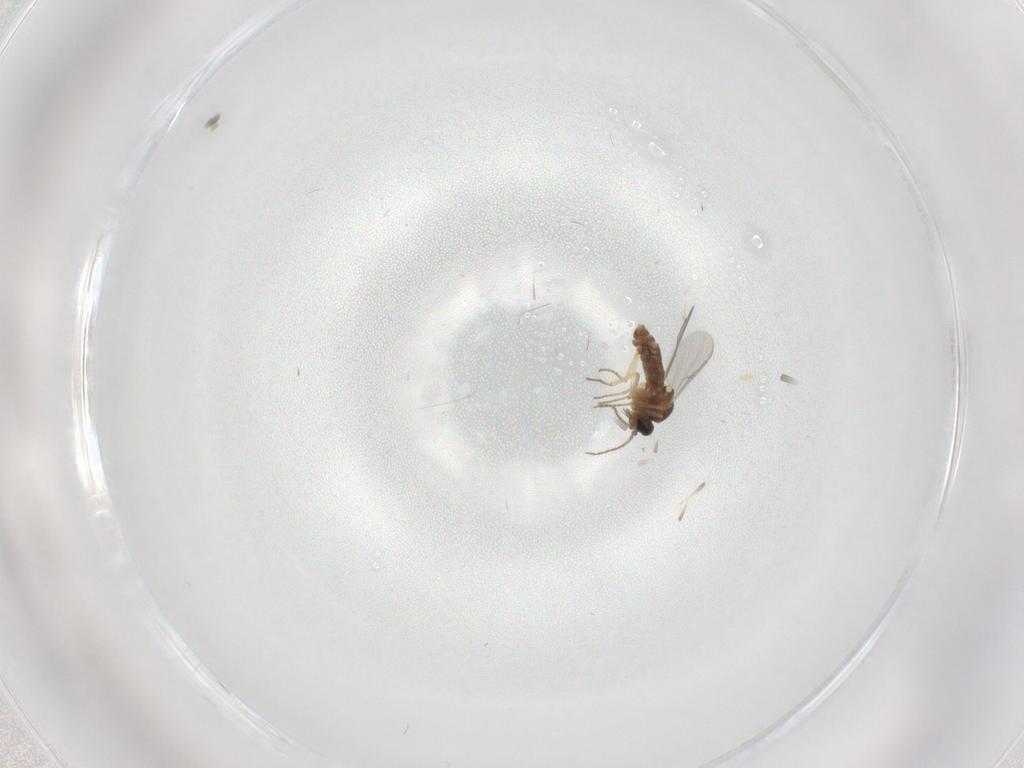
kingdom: Animalia
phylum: Arthropoda
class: Insecta
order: Diptera
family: Ceratopogonidae
